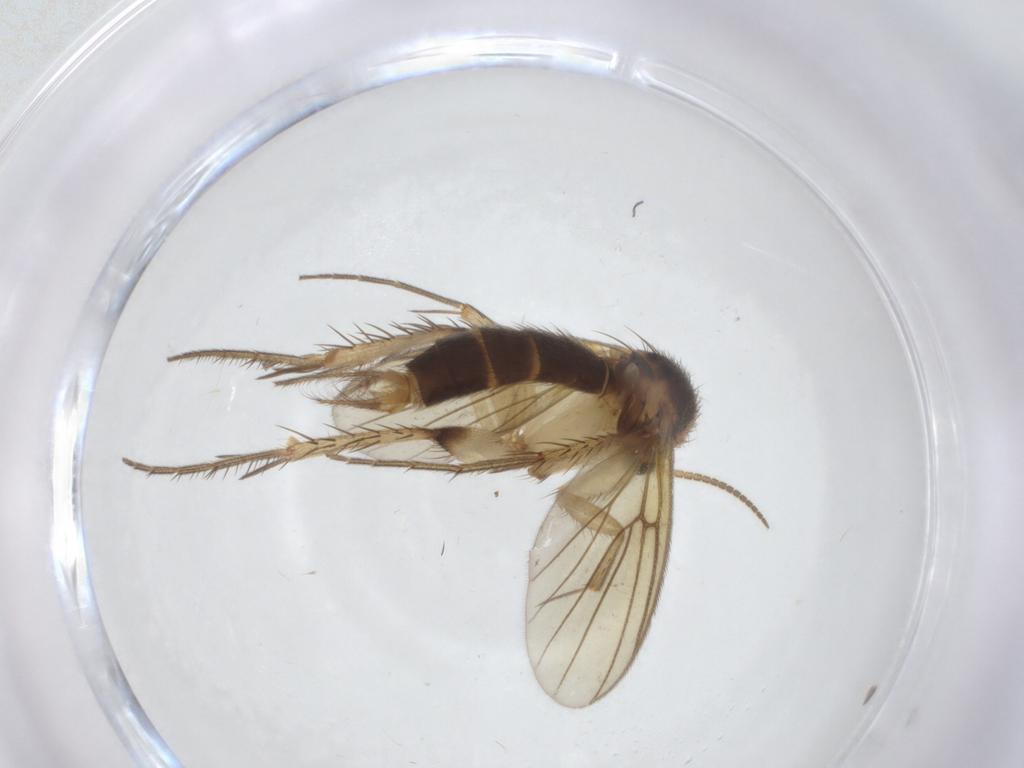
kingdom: Animalia
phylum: Arthropoda
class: Insecta
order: Diptera
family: Mycetophilidae
